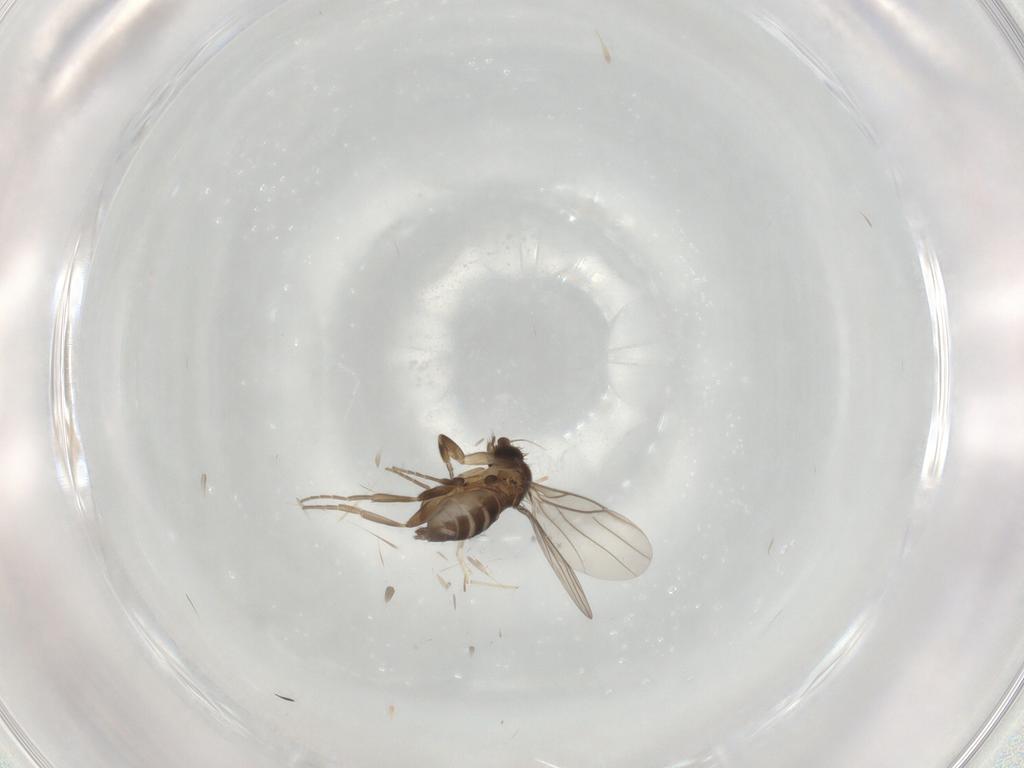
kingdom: Animalia
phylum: Arthropoda
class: Insecta
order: Diptera
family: Phoridae
